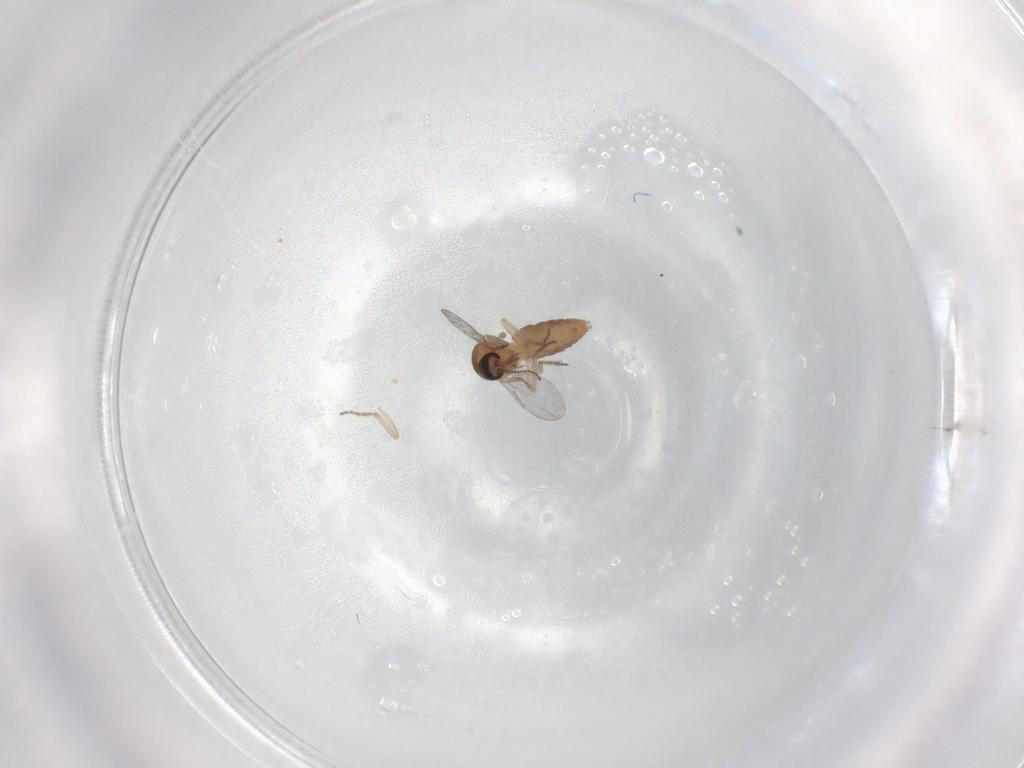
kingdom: Animalia
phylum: Arthropoda
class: Insecta
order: Diptera
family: Ceratopogonidae
